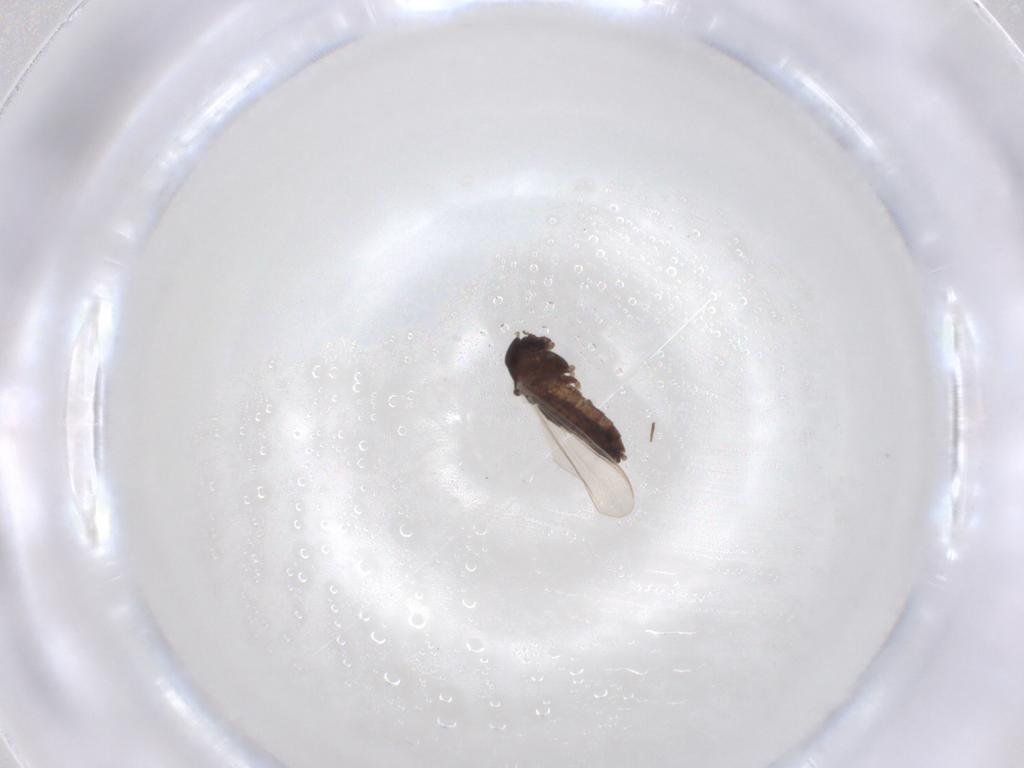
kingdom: Animalia
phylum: Arthropoda
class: Insecta
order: Diptera
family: Chironomidae
